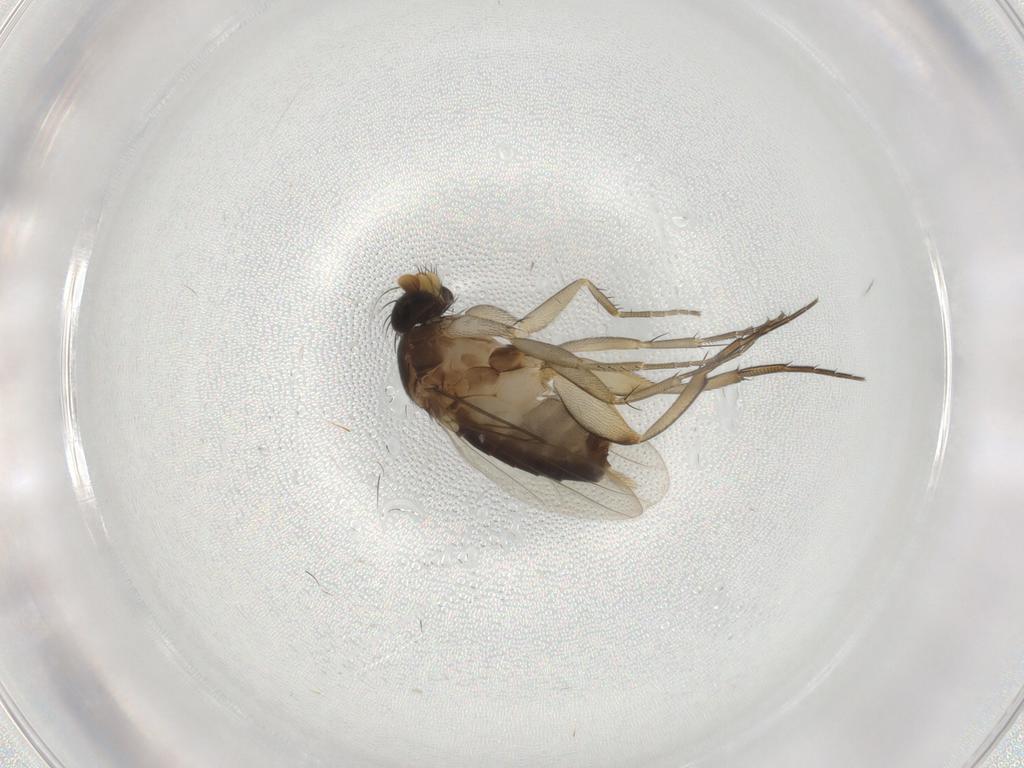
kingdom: Animalia
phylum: Arthropoda
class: Insecta
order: Diptera
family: Phoridae
